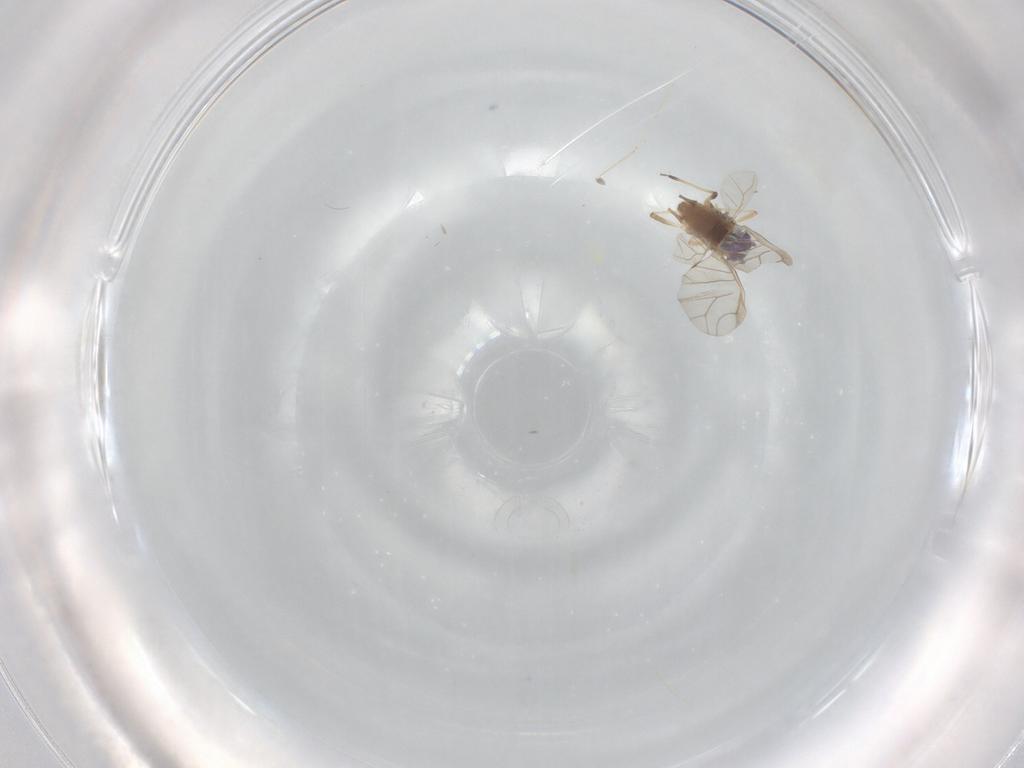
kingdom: Animalia
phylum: Arthropoda
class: Insecta
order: Hemiptera
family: Aphididae
